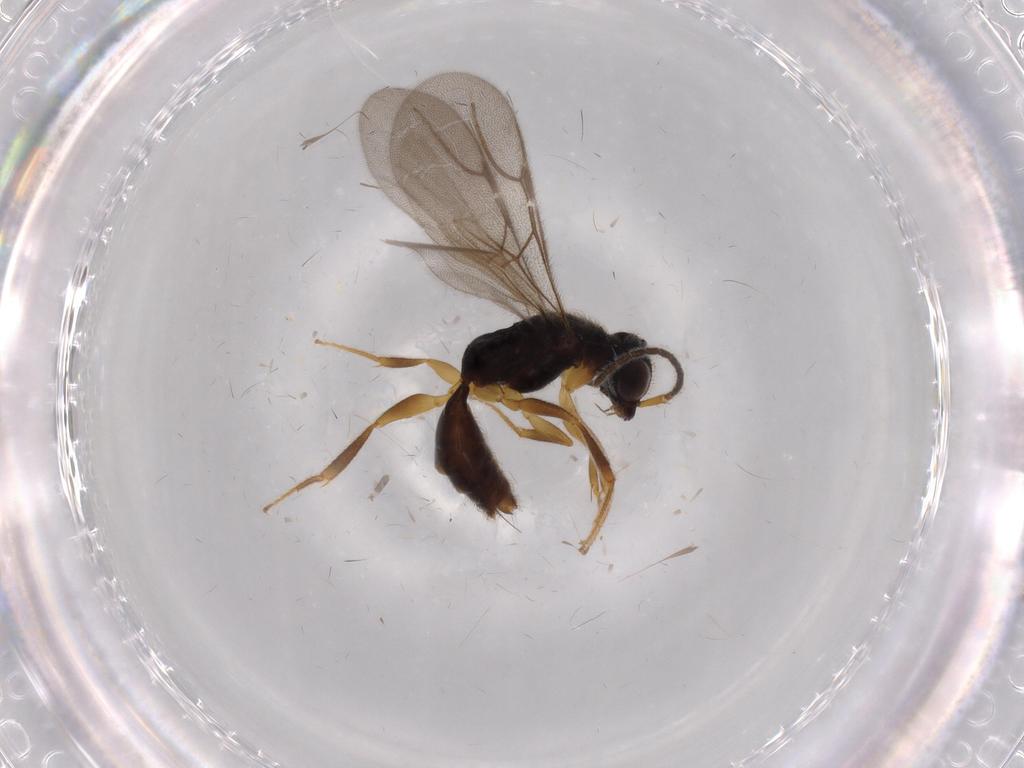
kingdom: Animalia
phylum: Arthropoda
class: Insecta
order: Hymenoptera
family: Bethylidae
